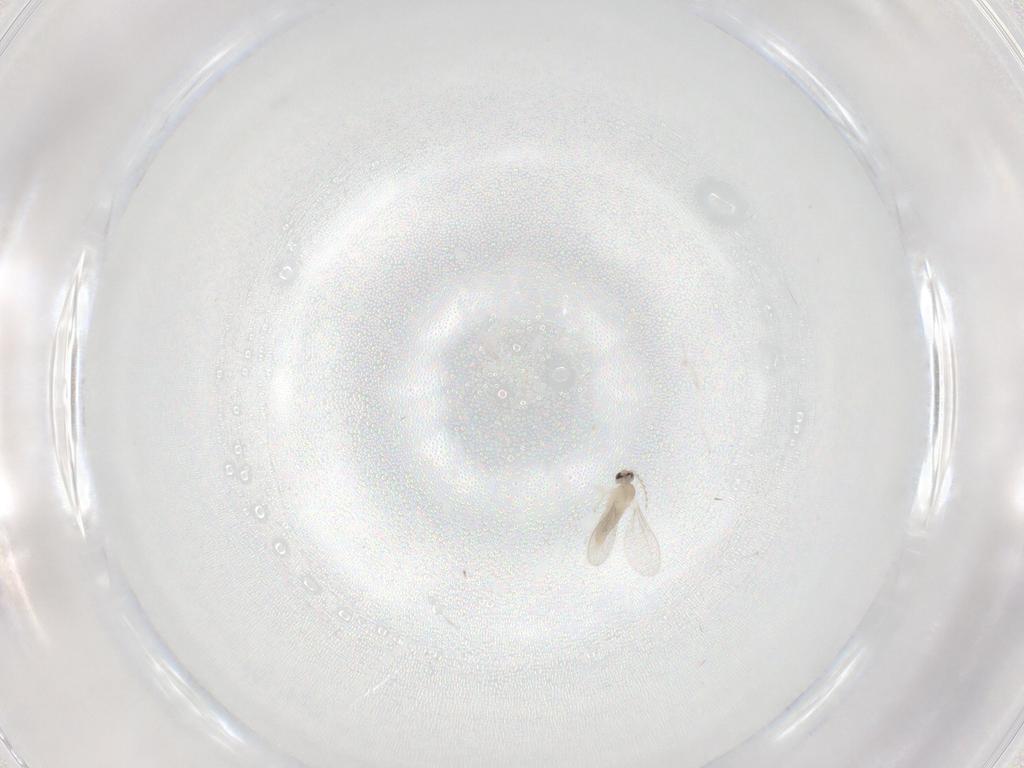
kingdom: Animalia
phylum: Arthropoda
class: Insecta
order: Diptera
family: Cecidomyiidae
